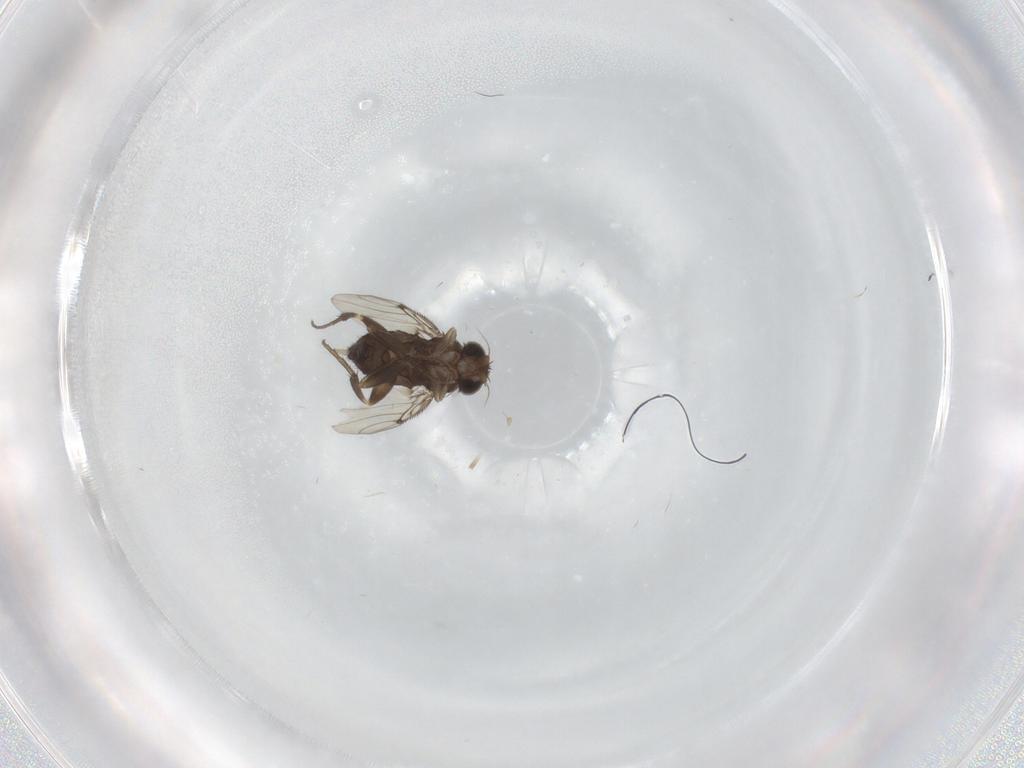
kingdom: Animalia
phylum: Arthropoda
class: Insecta
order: Diptera
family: Phoridae
